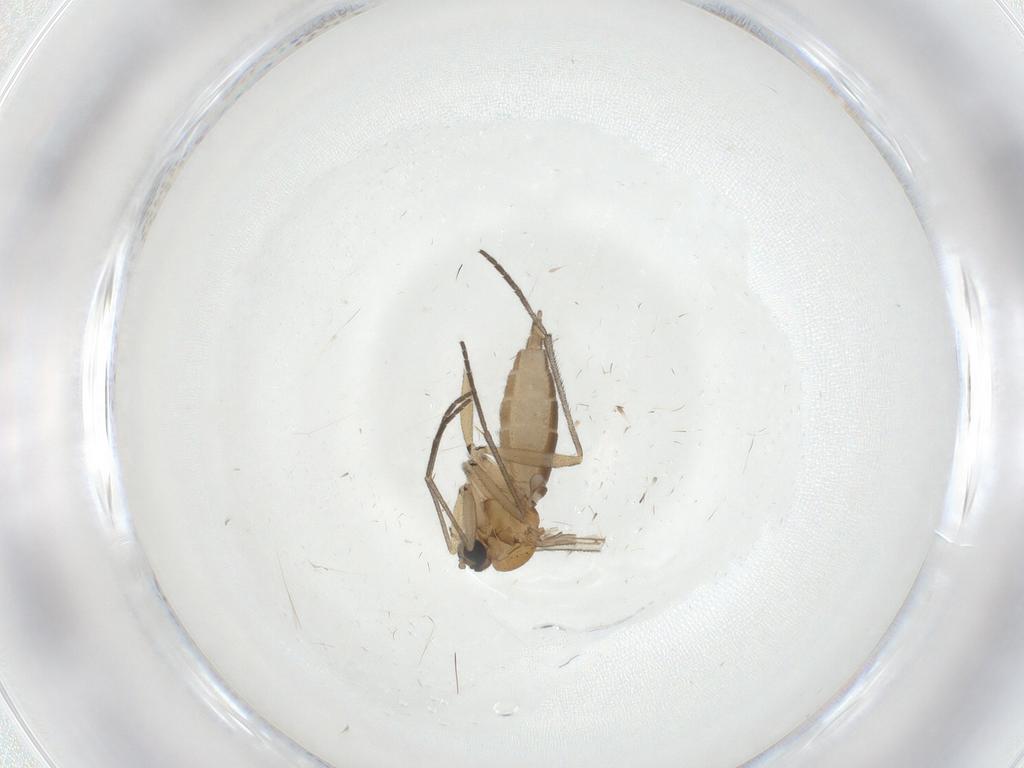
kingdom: Animalia
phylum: Arthropoda
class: Insecta
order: Diptera
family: Sciaridae
